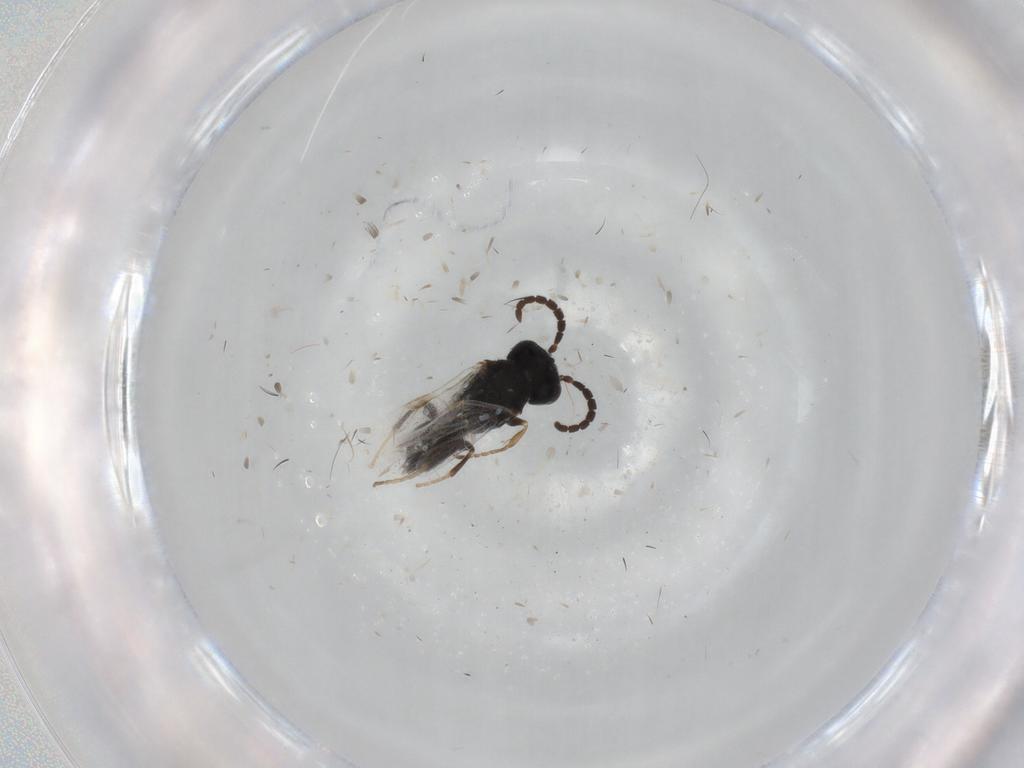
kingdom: Animalia
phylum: Arthropoda
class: Insecta
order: Hymenoptera
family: Dryinidae
